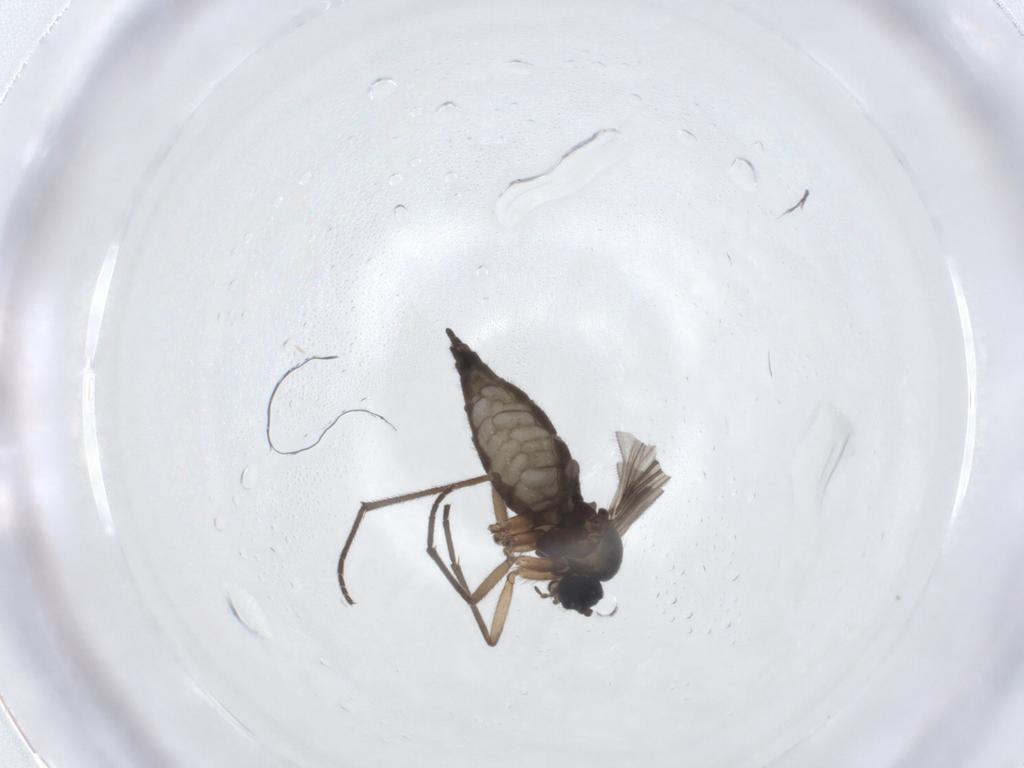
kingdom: Animalia
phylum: Arthropoda
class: Insecta
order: Diptera
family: Sciaridae
